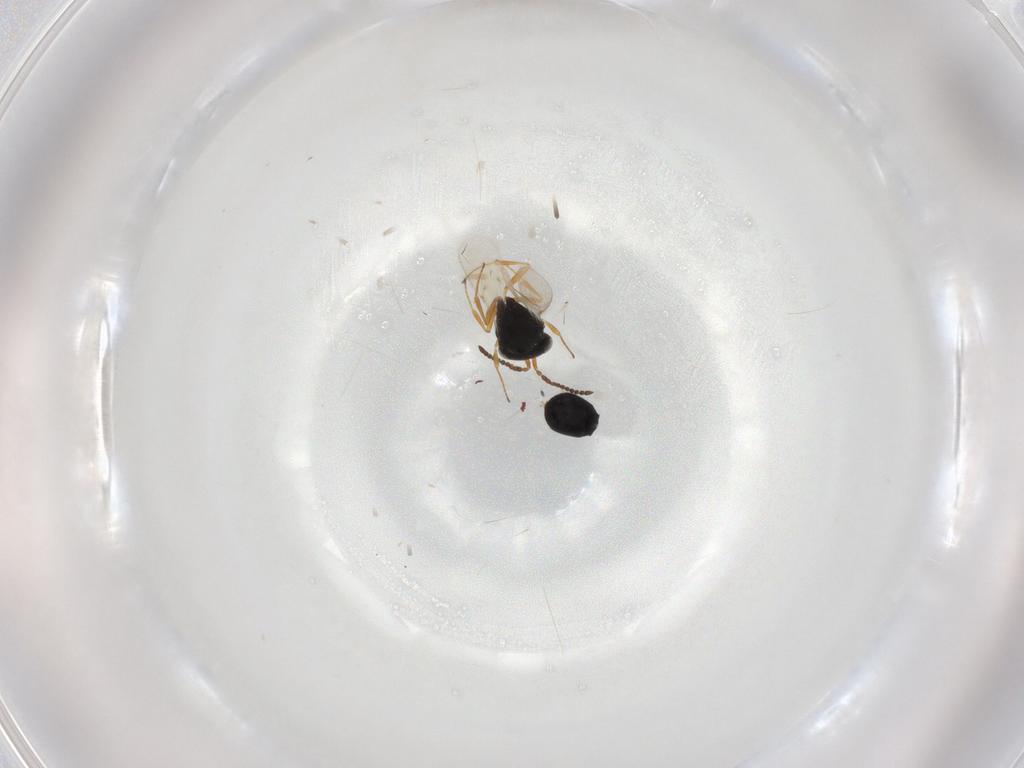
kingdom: Animalia
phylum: Arthropoda
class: Insecta
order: Hymenoptera
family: Scelionidae
